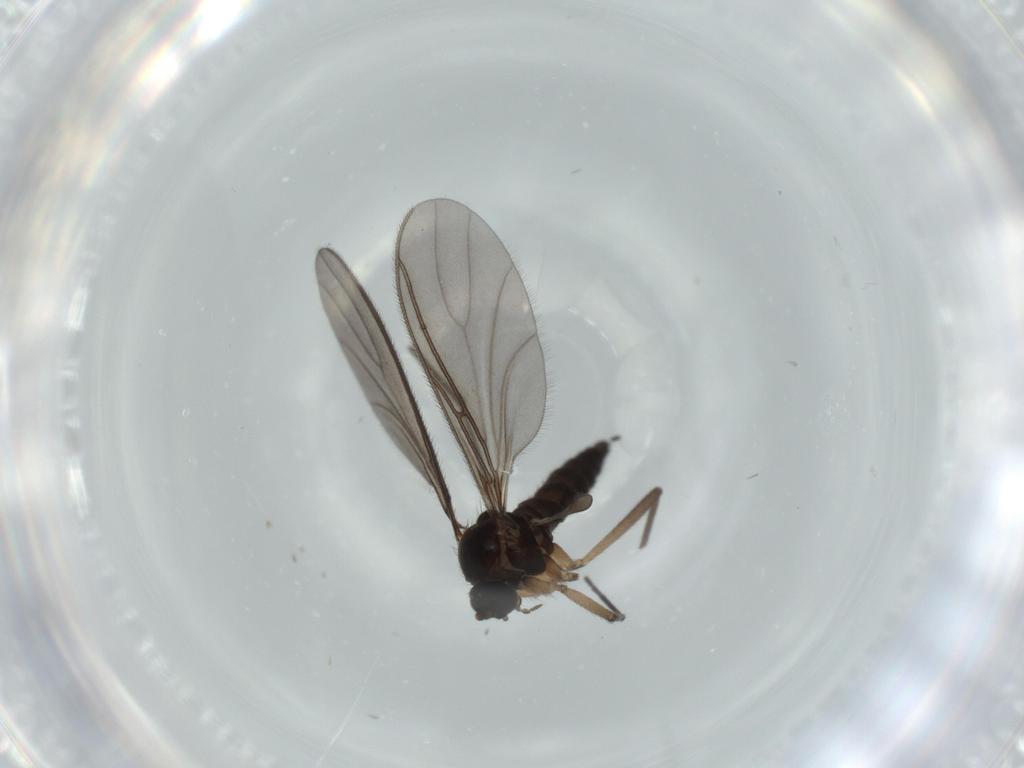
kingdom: Animalia
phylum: Arthropoda
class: Insecta
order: Diptera
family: Sciaridae
